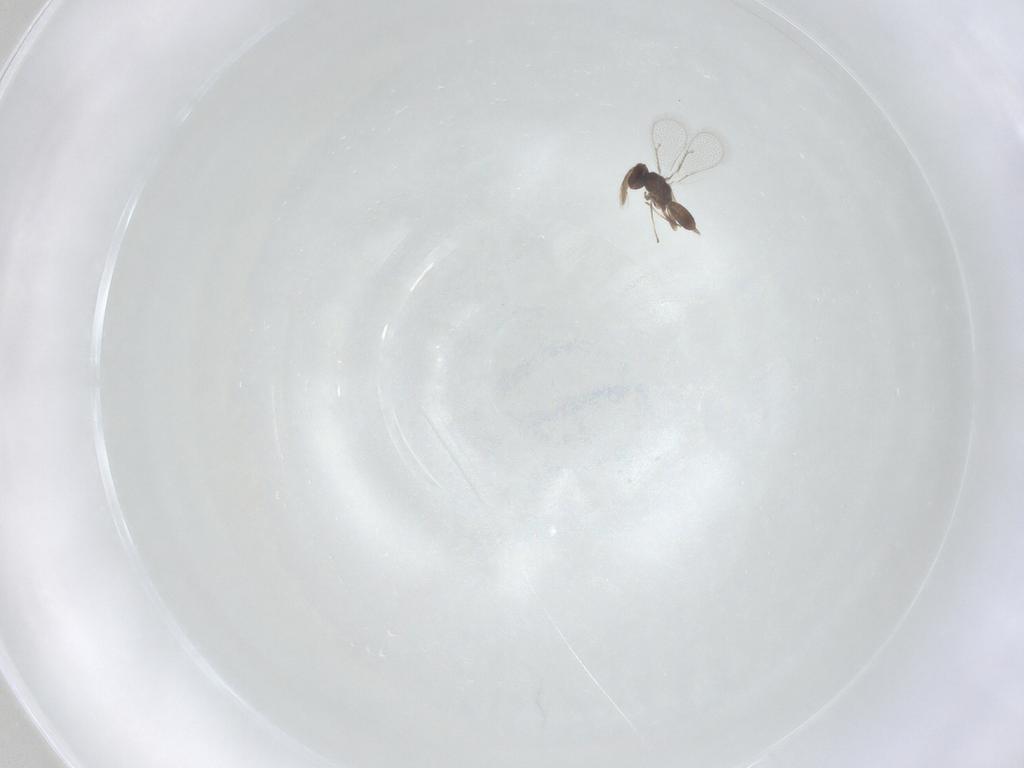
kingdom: Animalia
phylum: Arthropoda
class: Insecta
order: Hymenoptera
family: Eulophidae
